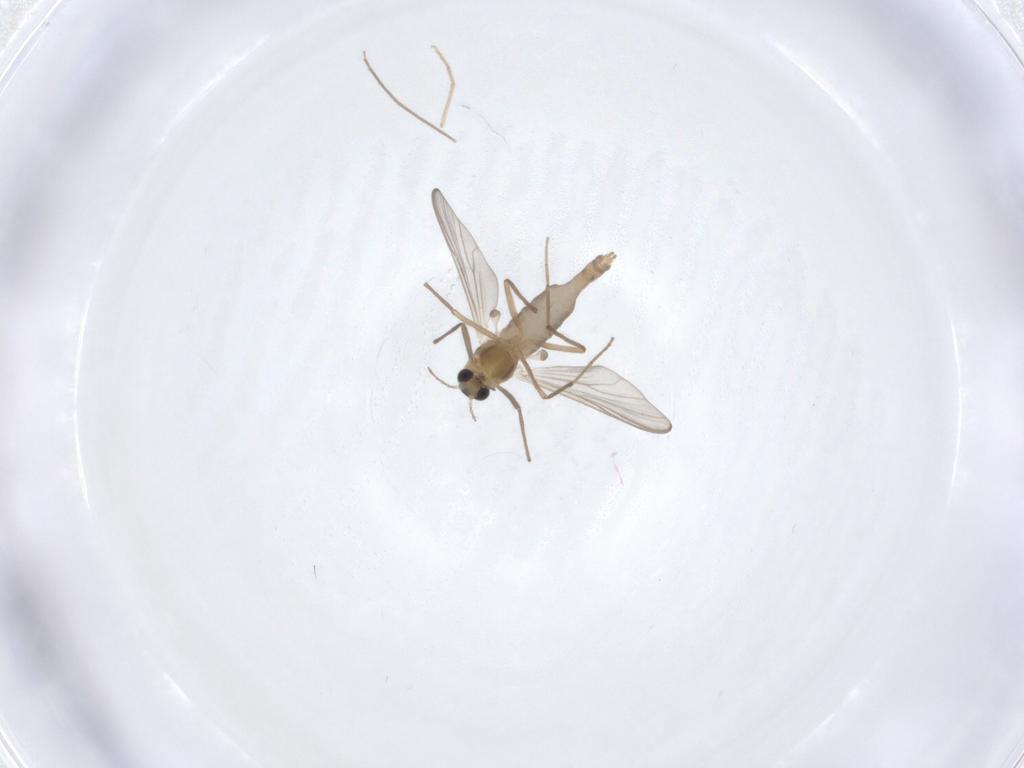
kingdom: Animalia
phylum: Arthropoda
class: Insecta
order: Diptera
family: Chironomidae
